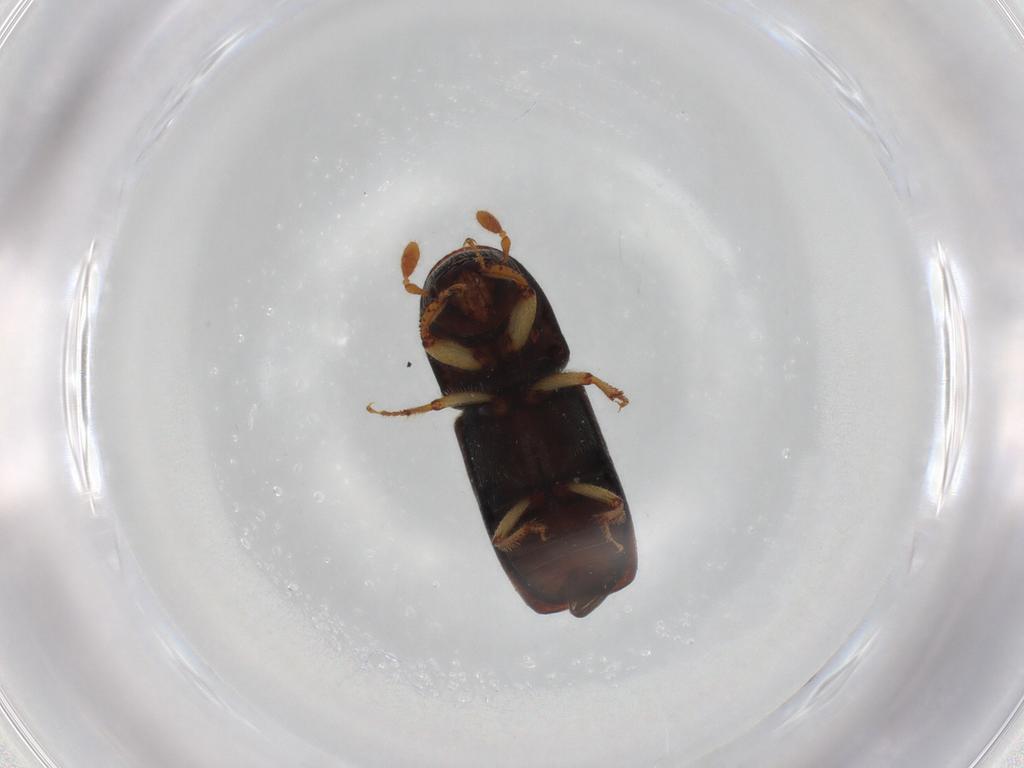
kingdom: Animalia
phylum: Arthropoda
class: Insecta
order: Coleoptera
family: Curculionidae
